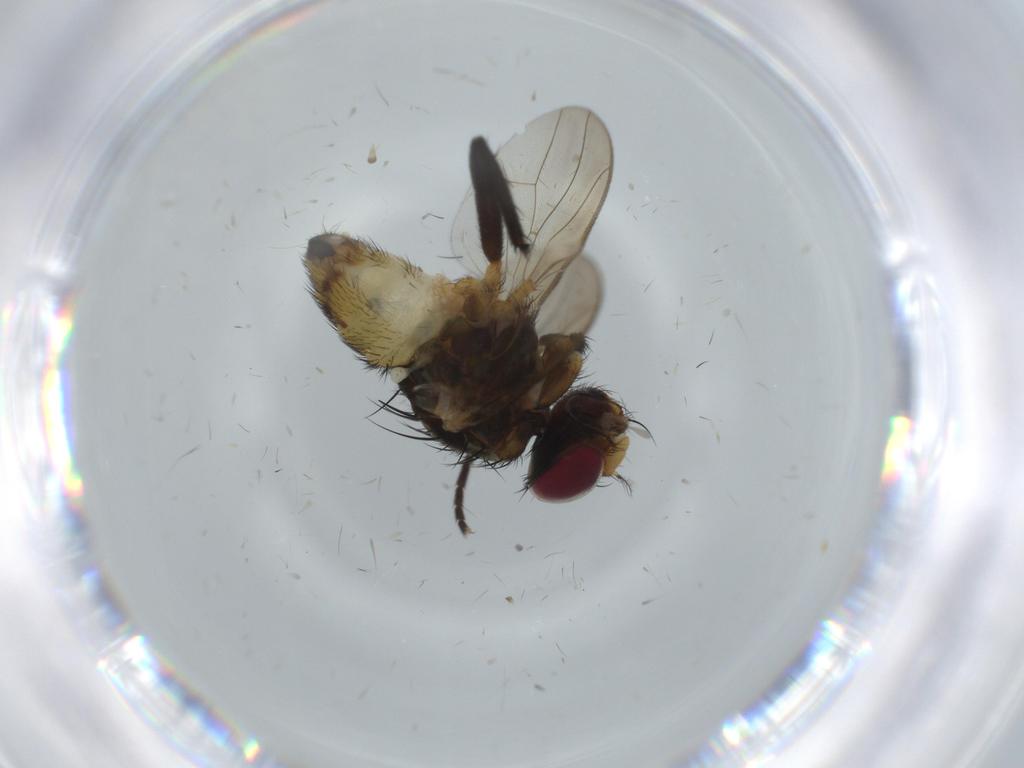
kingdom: Animalia
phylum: Arthropoda
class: Insecta
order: Diptera
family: Anthomyiidae
